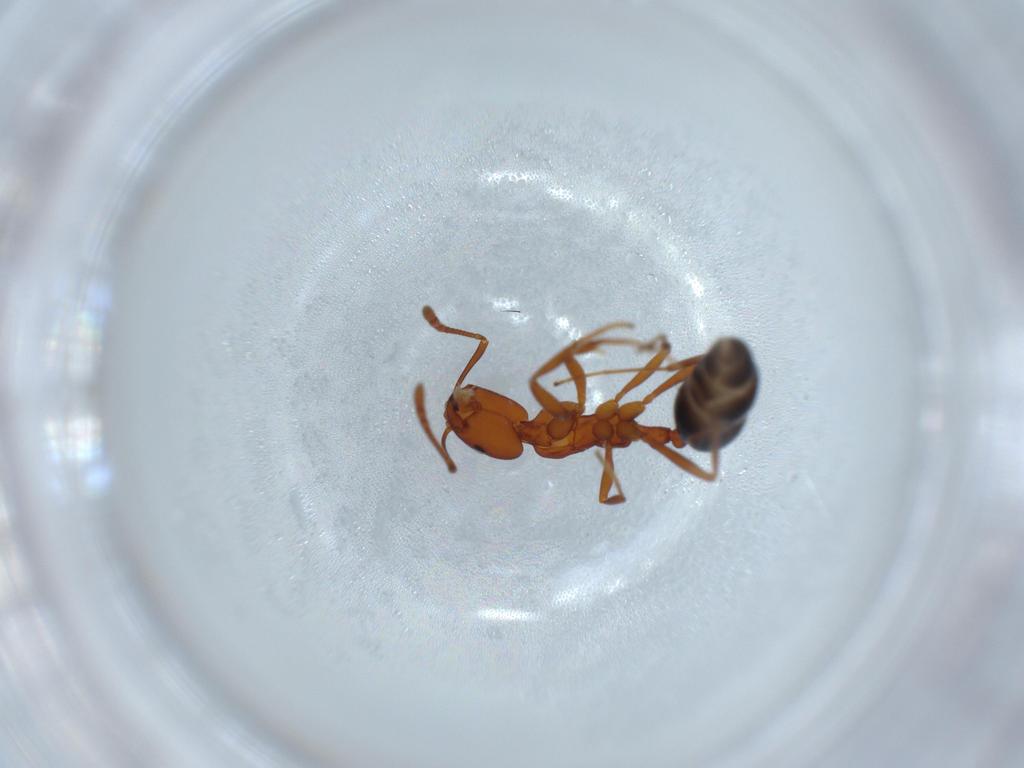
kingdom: Animalia
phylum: Arthropoda
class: Insecta
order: Hymenoptera
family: Formicidae
